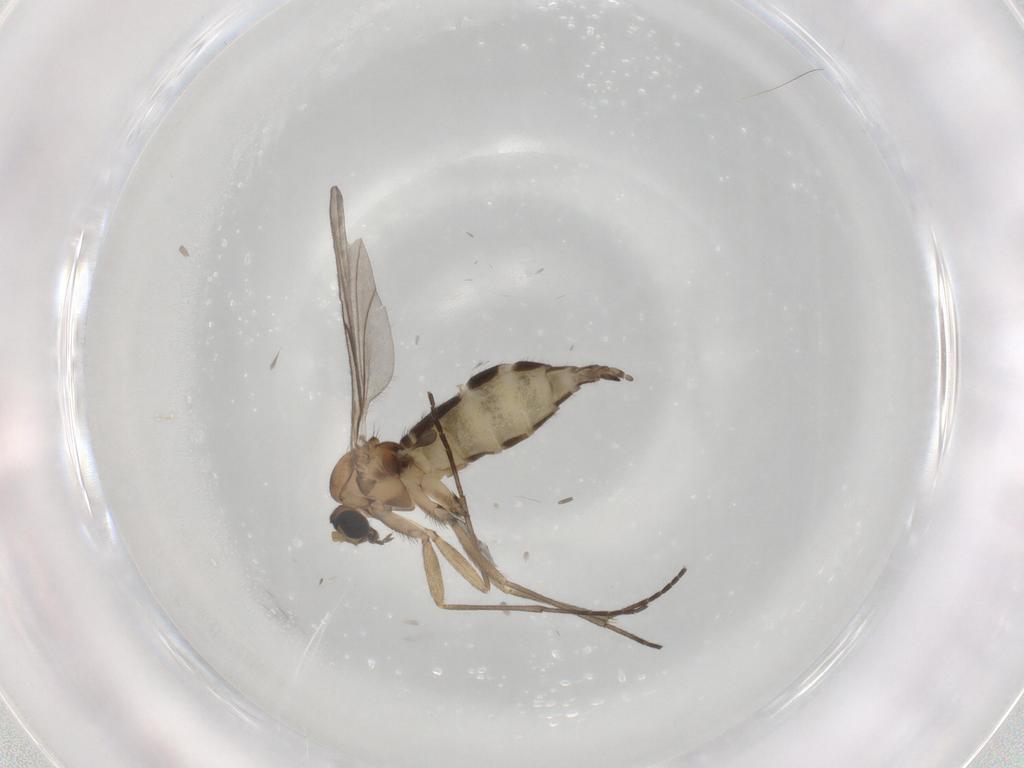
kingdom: Animalia
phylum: Arthropoda
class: Insecta
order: Diptera
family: Sciaridae
